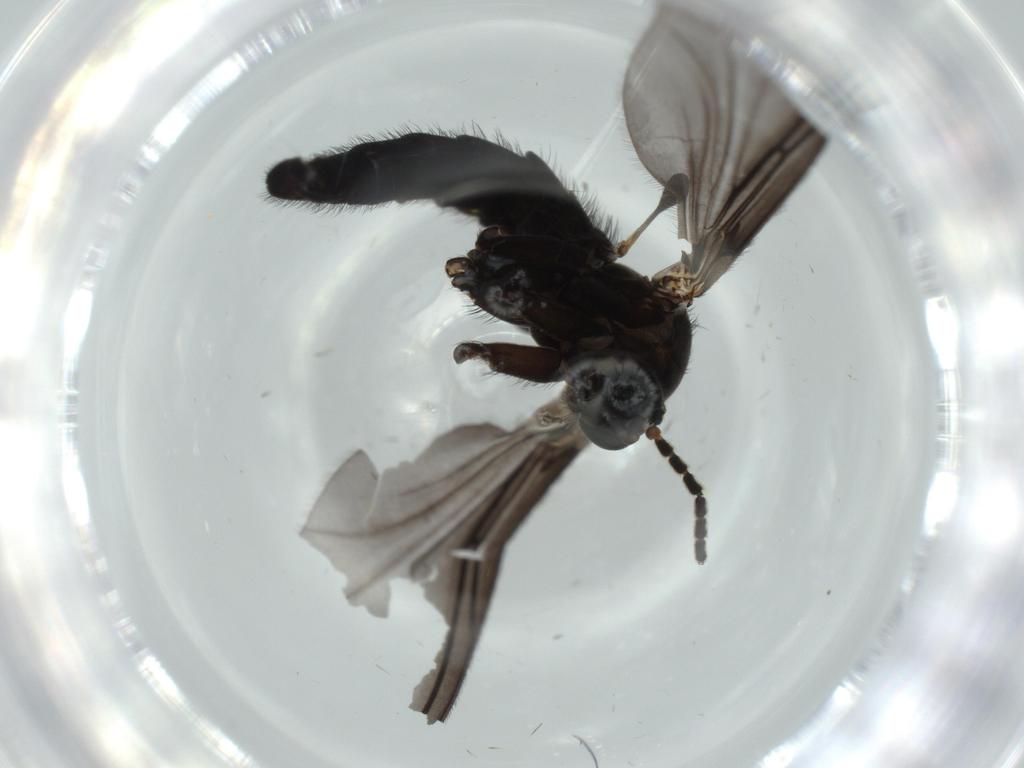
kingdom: Animalia
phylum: Arthropoda
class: Insecta
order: Diptera
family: Sciaridae
